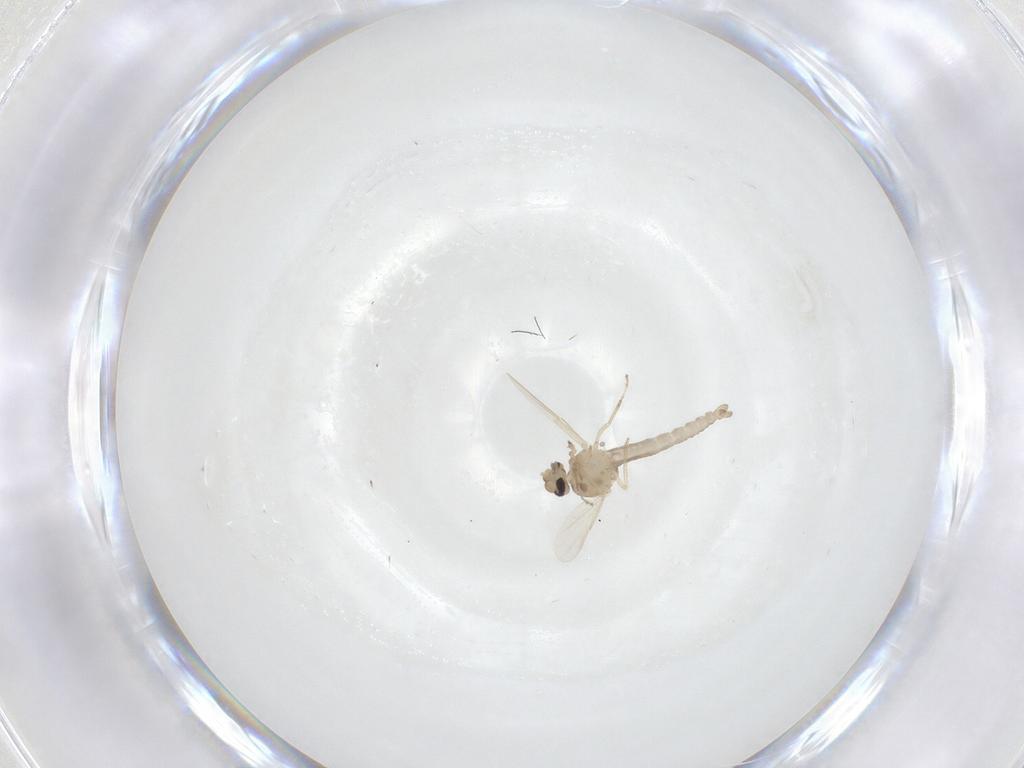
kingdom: Animalia
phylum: Arthropoda
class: Insecta
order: Diptera
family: Ceratopogonidae
